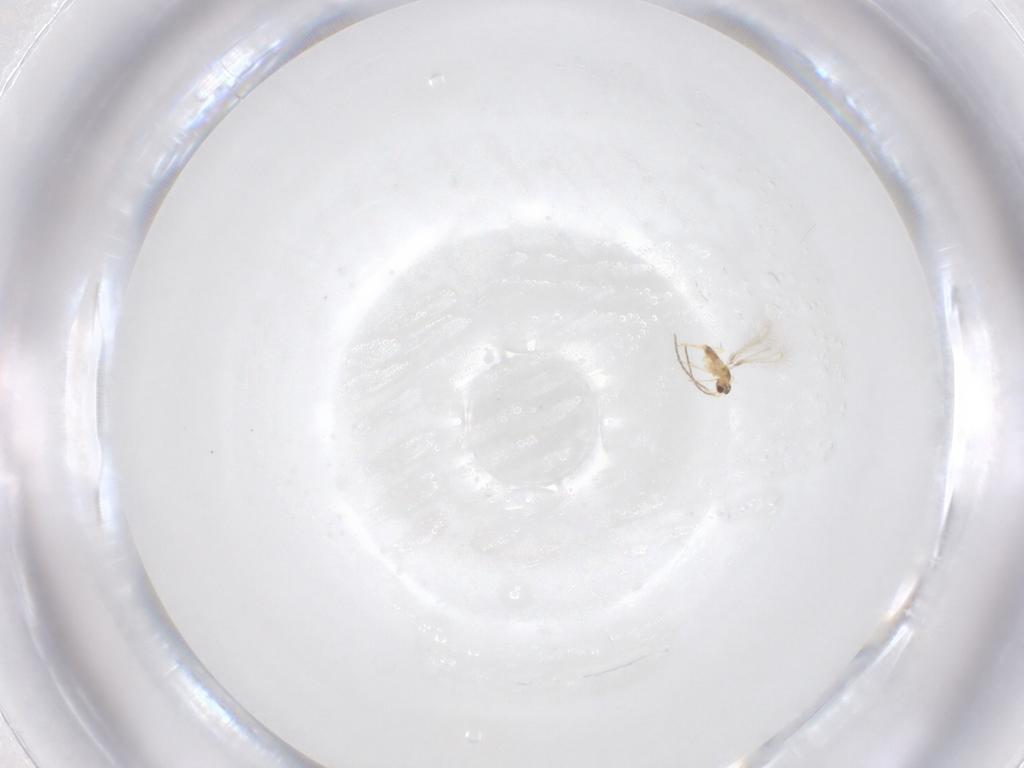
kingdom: Animalia
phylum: Arthropoda
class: Insecta
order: Hymenoptera
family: Mymaridae
